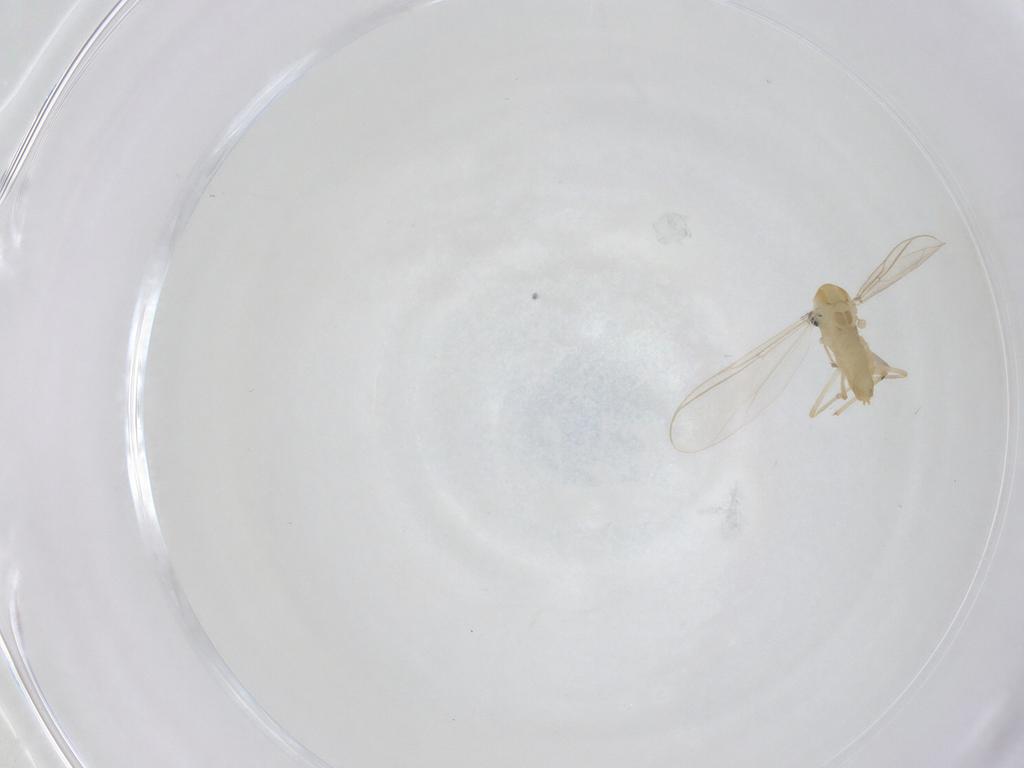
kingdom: Animalia
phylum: Arthropoda
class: Insecta
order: Diptera
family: Chironomidae
